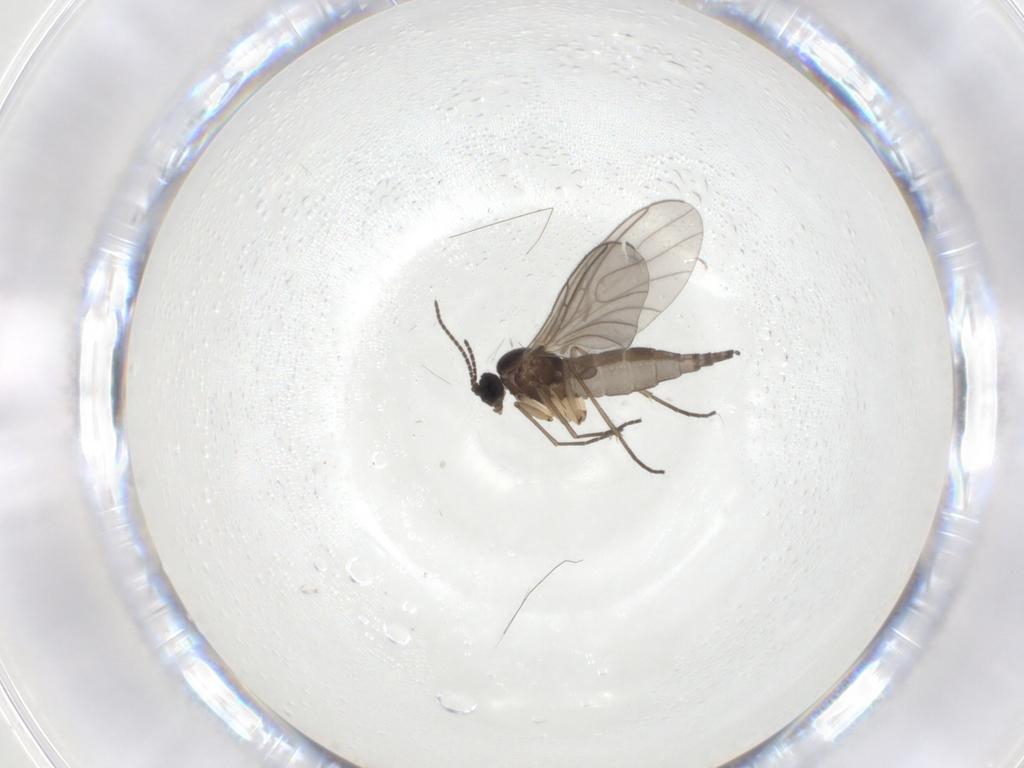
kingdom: Animalia
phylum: Arthropoda
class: Insecta
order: Diptera
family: Sciaridae
